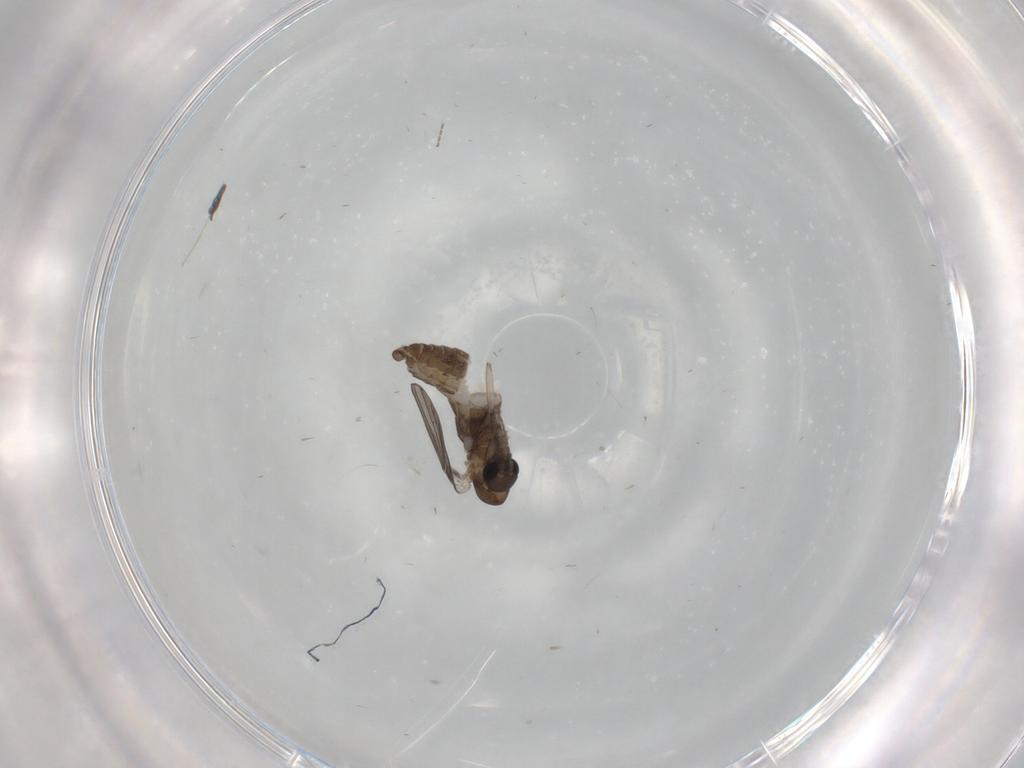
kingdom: Animalia
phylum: Arthropoda
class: Insecta
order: Diptera
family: Psychodidae
